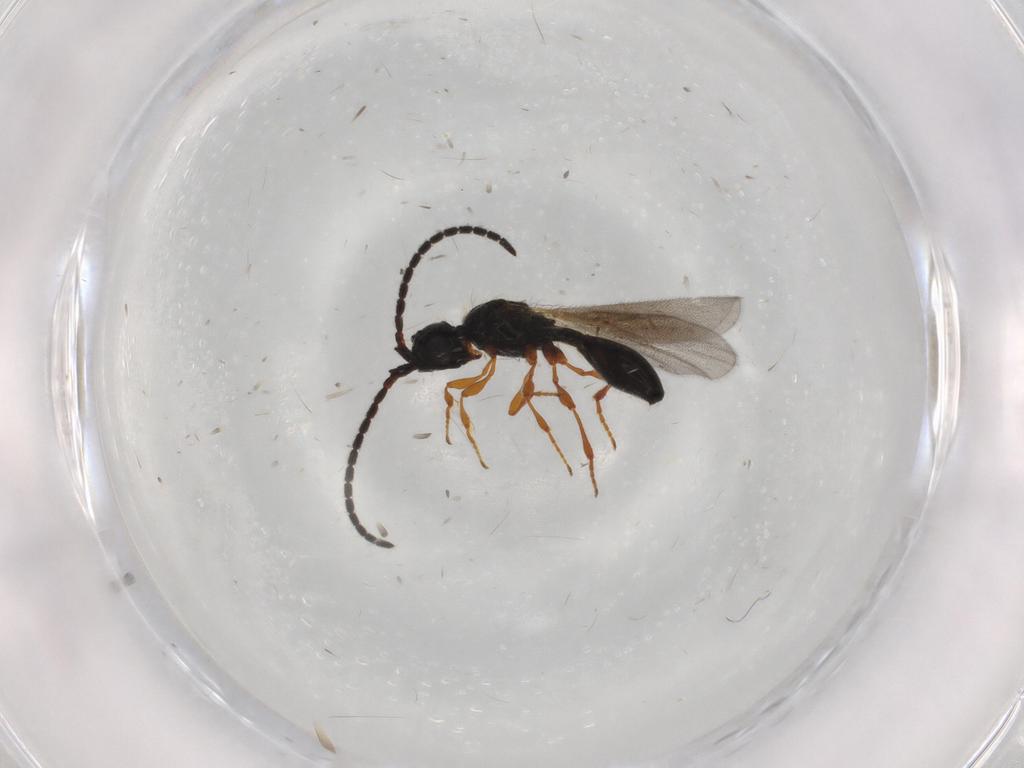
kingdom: Animalia
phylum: Arthropoda
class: Insecta
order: Hymenoptera
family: Diapriidae
